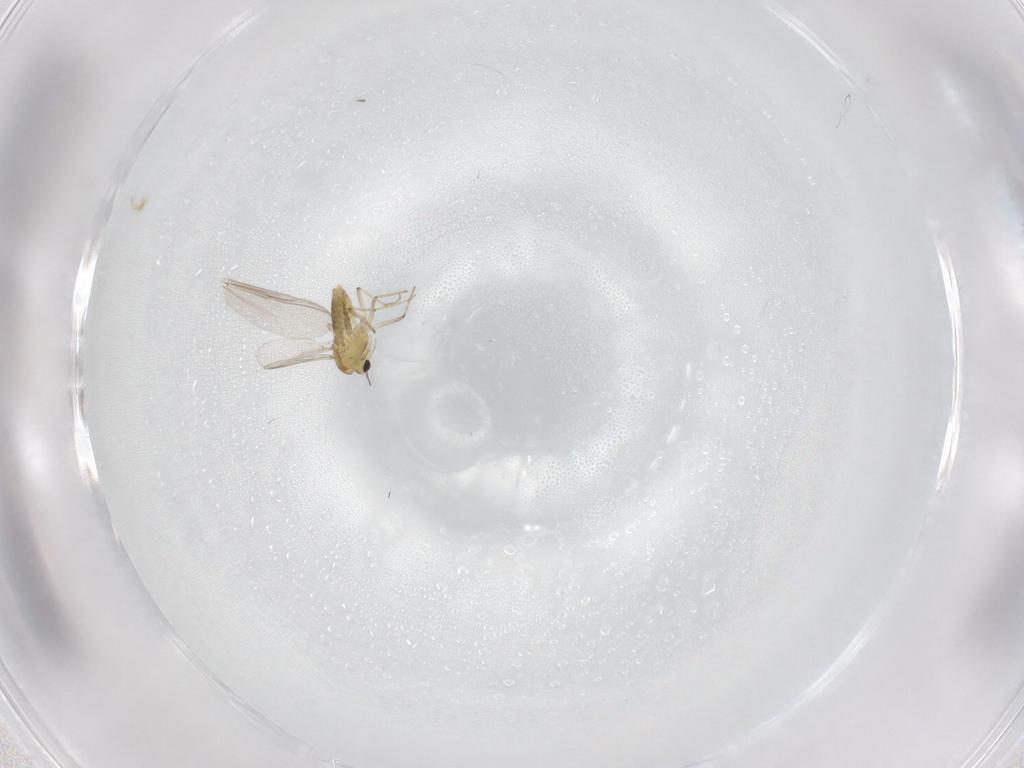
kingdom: Animalia
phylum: Arthropoda
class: Insecta
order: Diptera
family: Chironomidae
